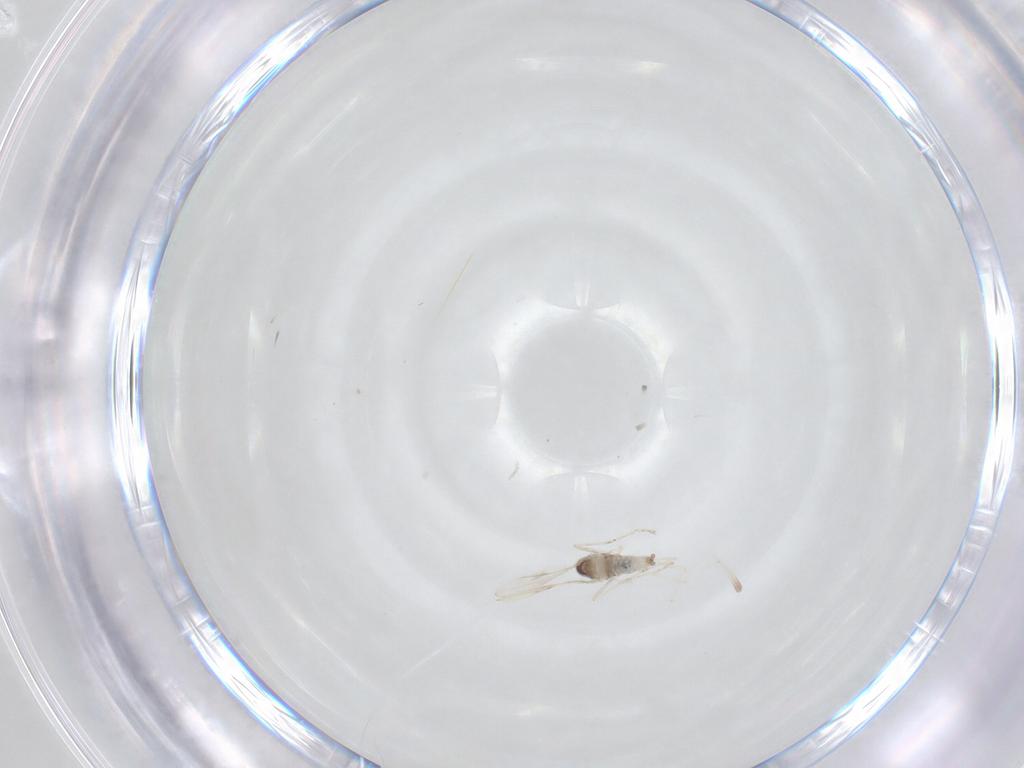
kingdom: Animalia
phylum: Arthropoda
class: Insecta
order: Diptera
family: Cecidomyiidae
